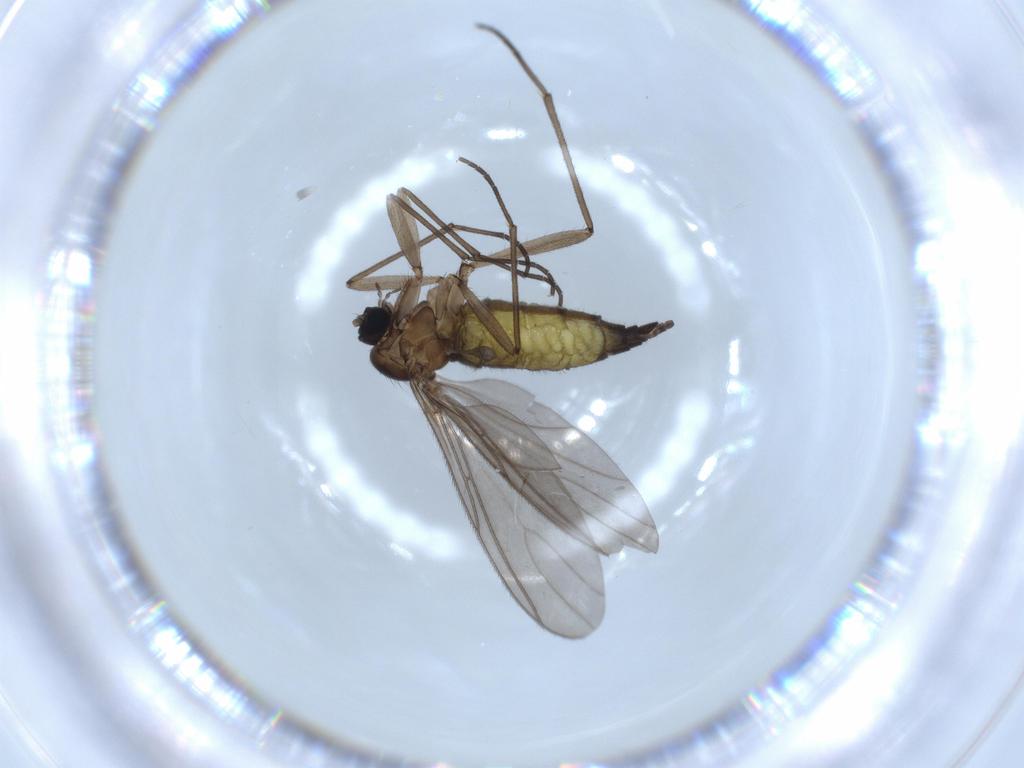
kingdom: Animalia
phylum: Arthropoda
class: Insecta
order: Diptera
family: Sciaridae
